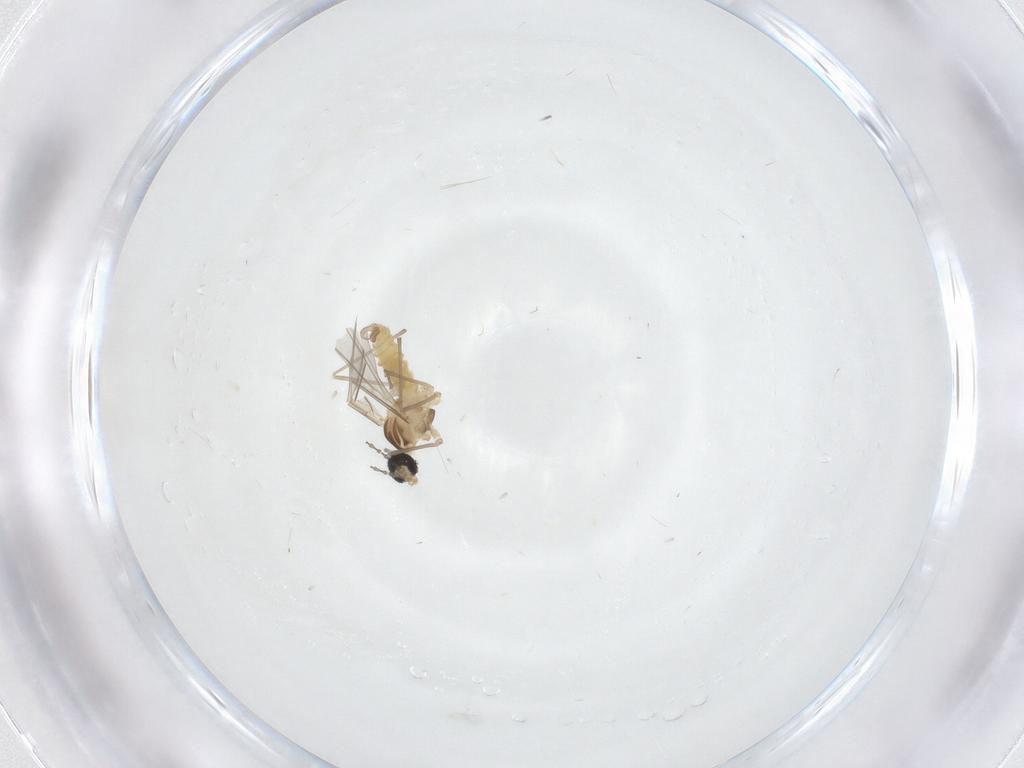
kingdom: Animalia
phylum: Arthropoda
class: Insecta
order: Diptera
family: Cecidomyiidae
